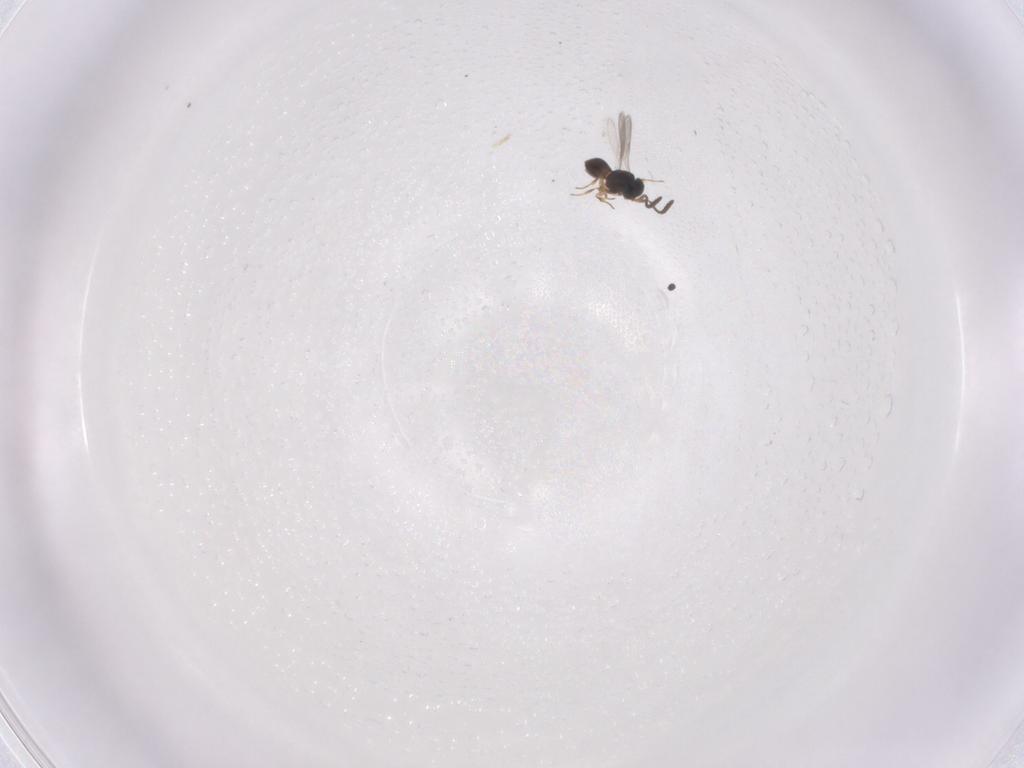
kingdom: Animalia
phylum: Arthropoda
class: Insecta
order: Hymenoptera
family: Scelionidae
